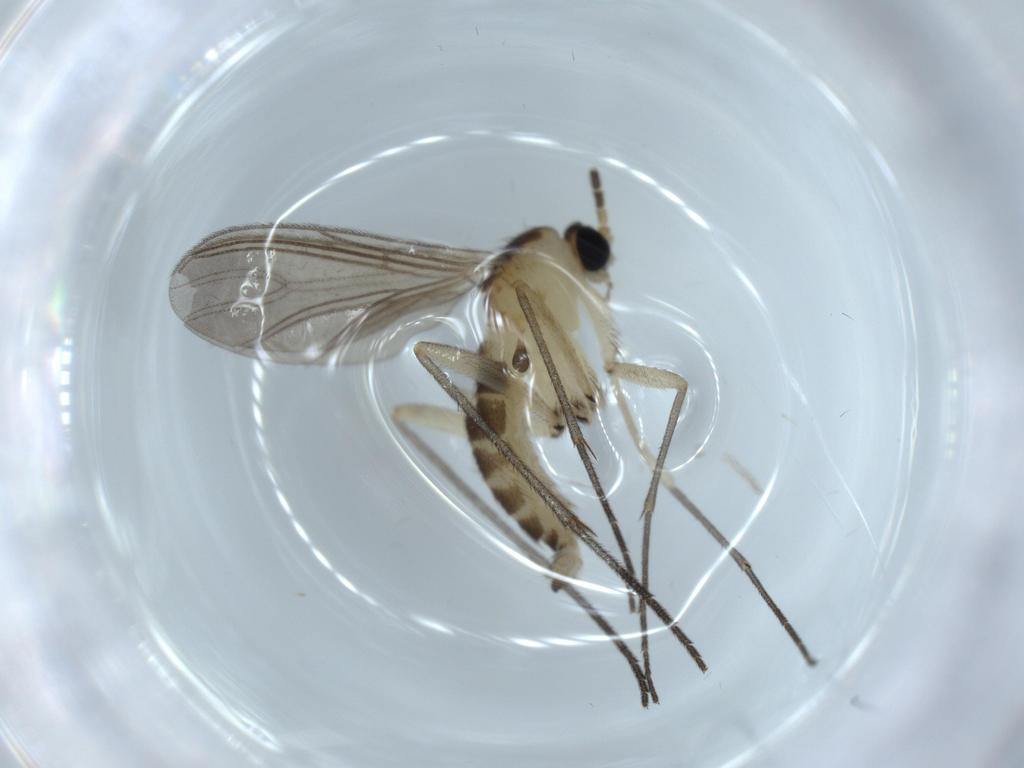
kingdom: Animalia
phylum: Arthropoda
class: Insecta
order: Diptera
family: Sciaridae
